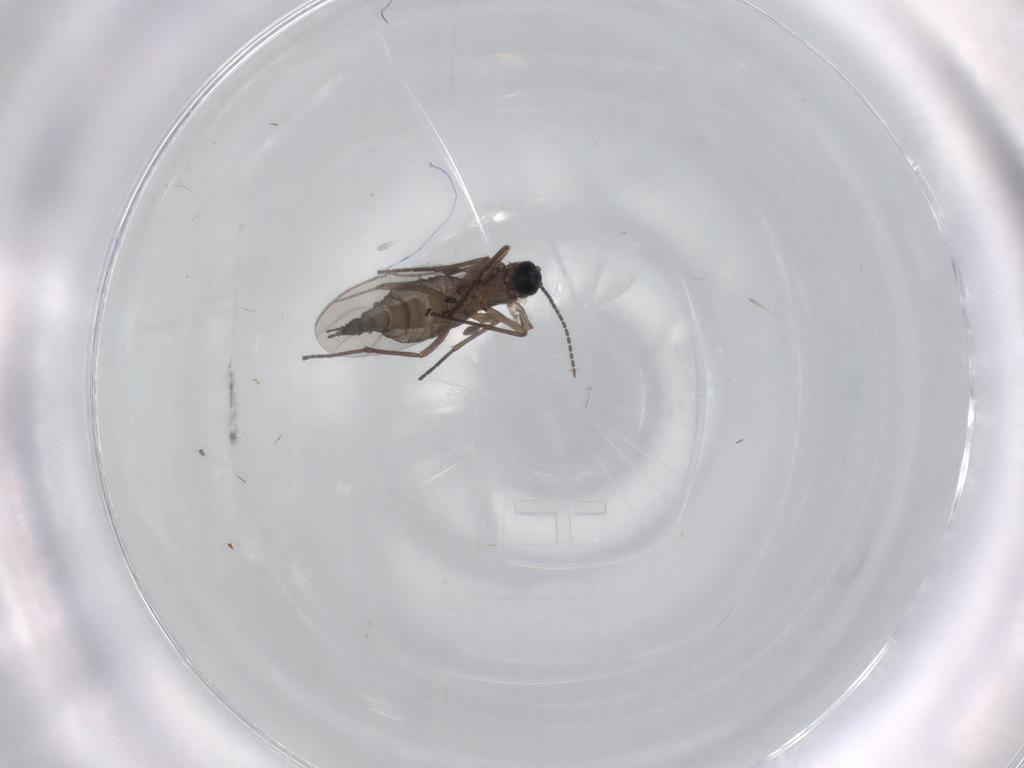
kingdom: Animalia
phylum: Arthropoda
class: Insecta
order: Diptera
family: Sciaridae
